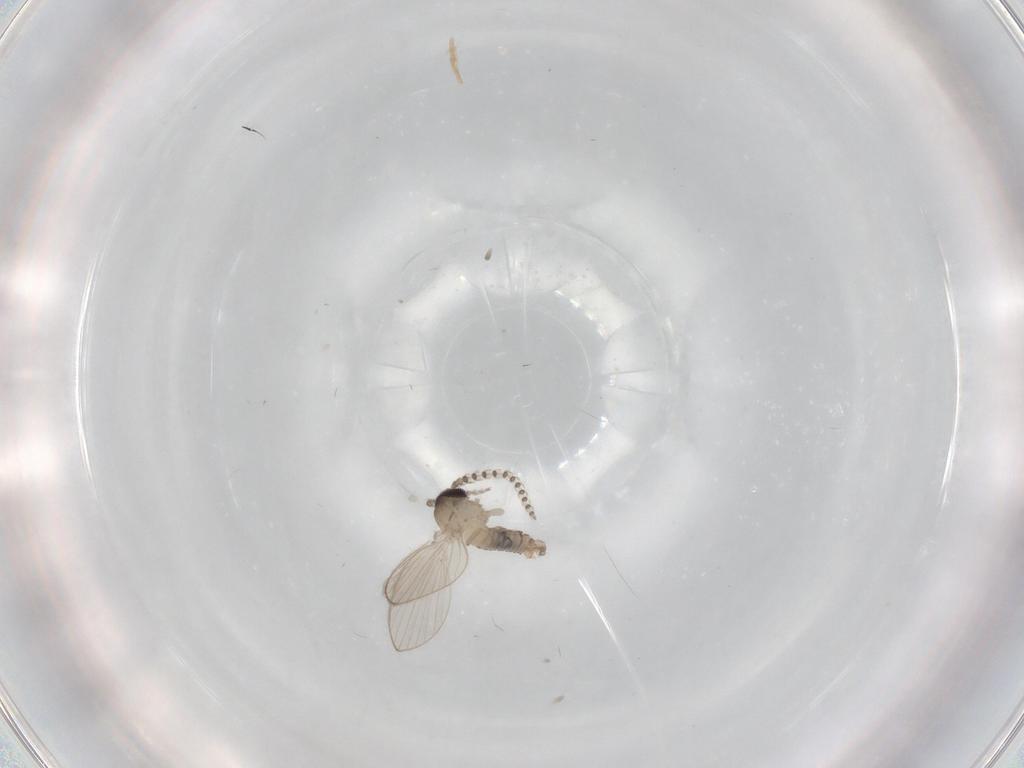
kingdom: Animalia
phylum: Arthropoda
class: Insecta
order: Diptera
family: Psychodidae
